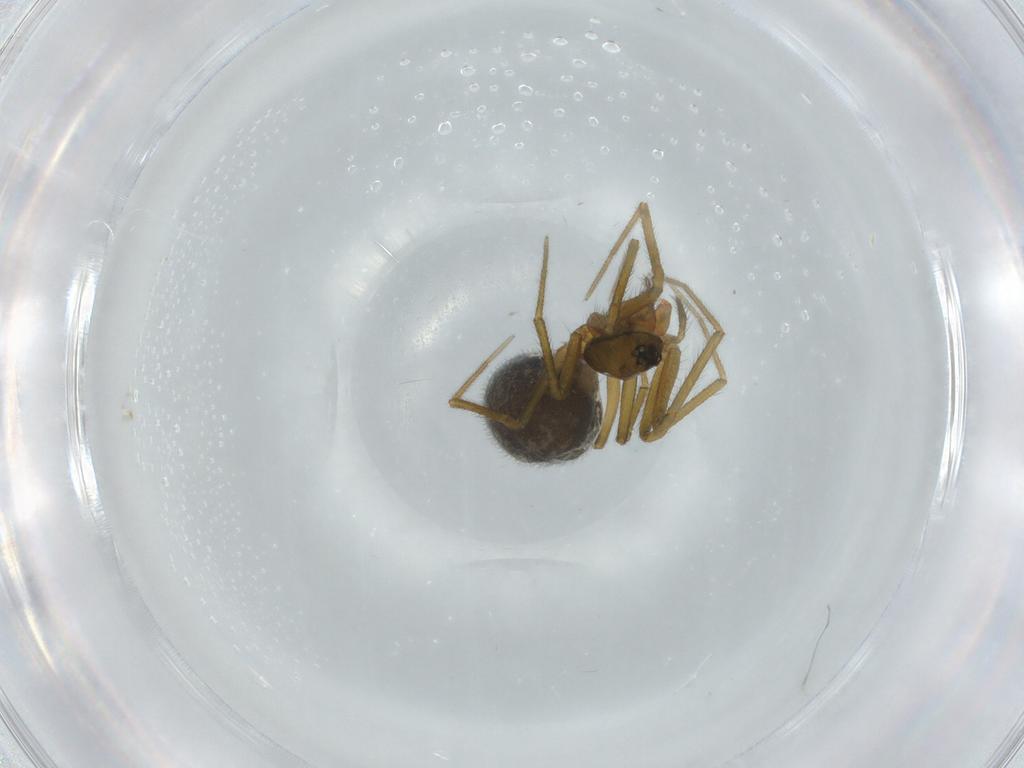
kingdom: Animalia
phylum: Arthropoda
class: Arachnida
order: Araneae
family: Linyphiidae
